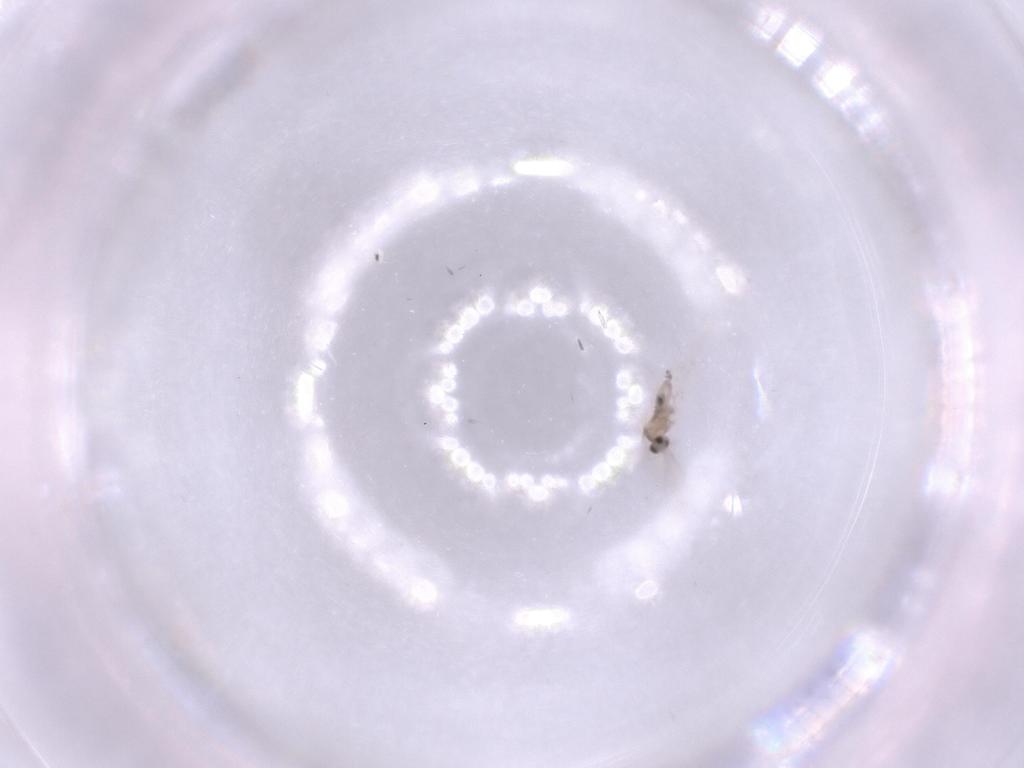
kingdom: Animalia
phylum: Arthropoda
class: Insecta
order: Diptera
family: Cecidomyiidae
